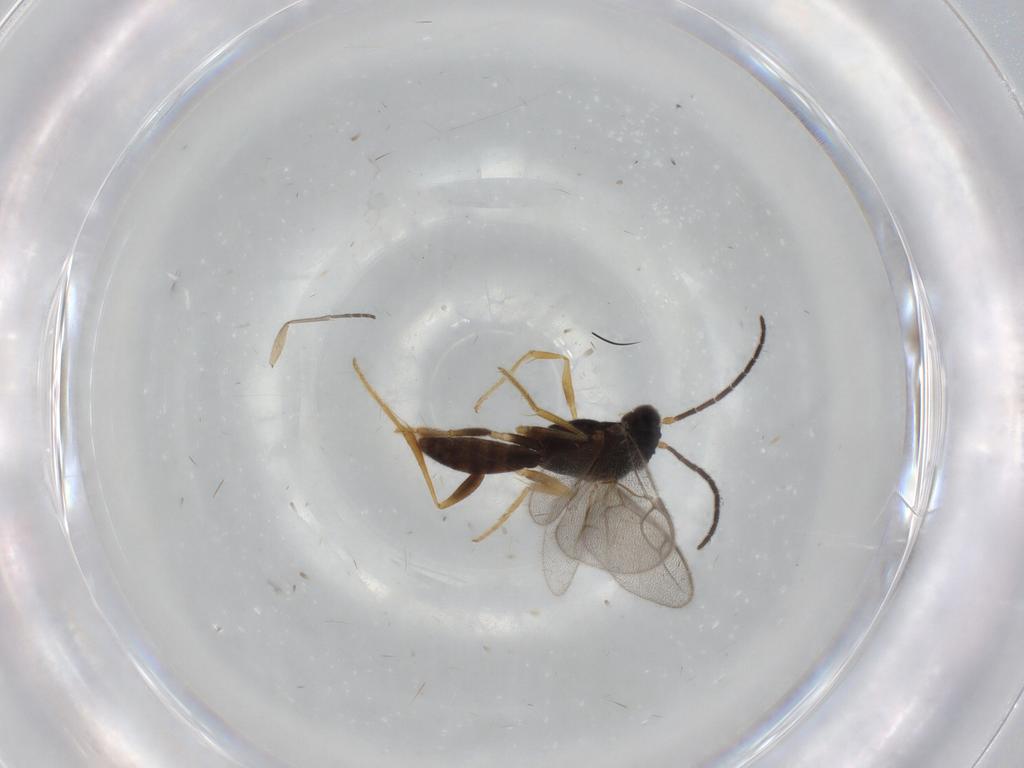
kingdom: Animalia
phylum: Arthropoda
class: Insecta
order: Hymenoptera
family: Dryinidae
